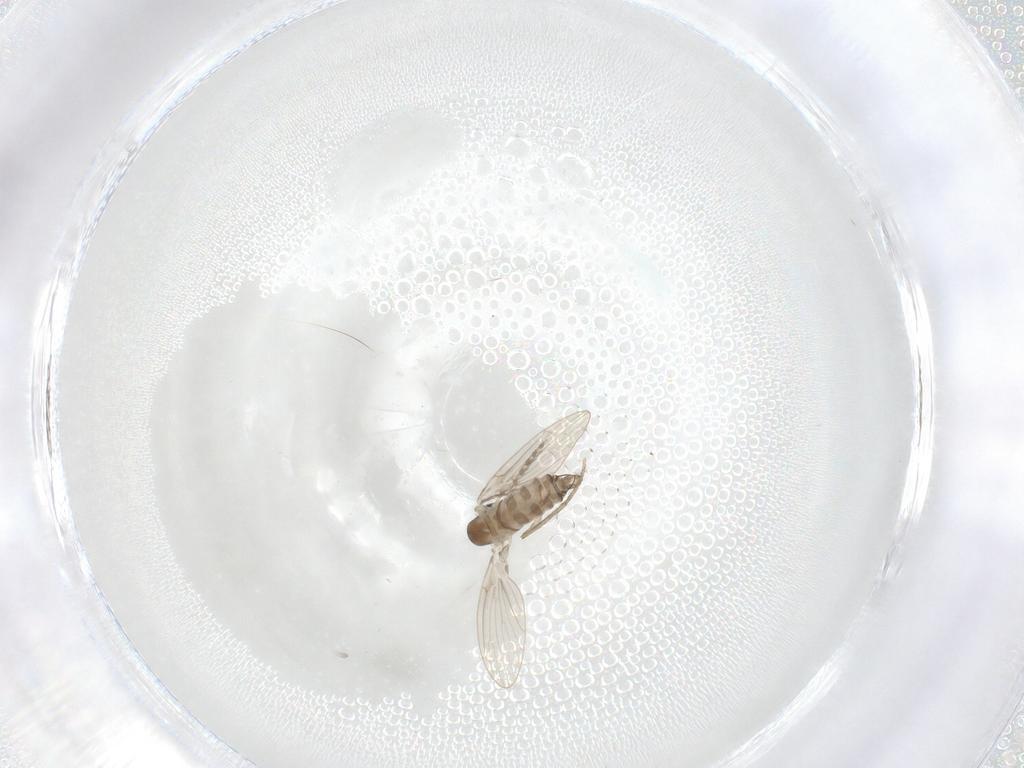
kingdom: Animalia
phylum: Arthropoda
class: Insecta
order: Diptera
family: Psychodidae
